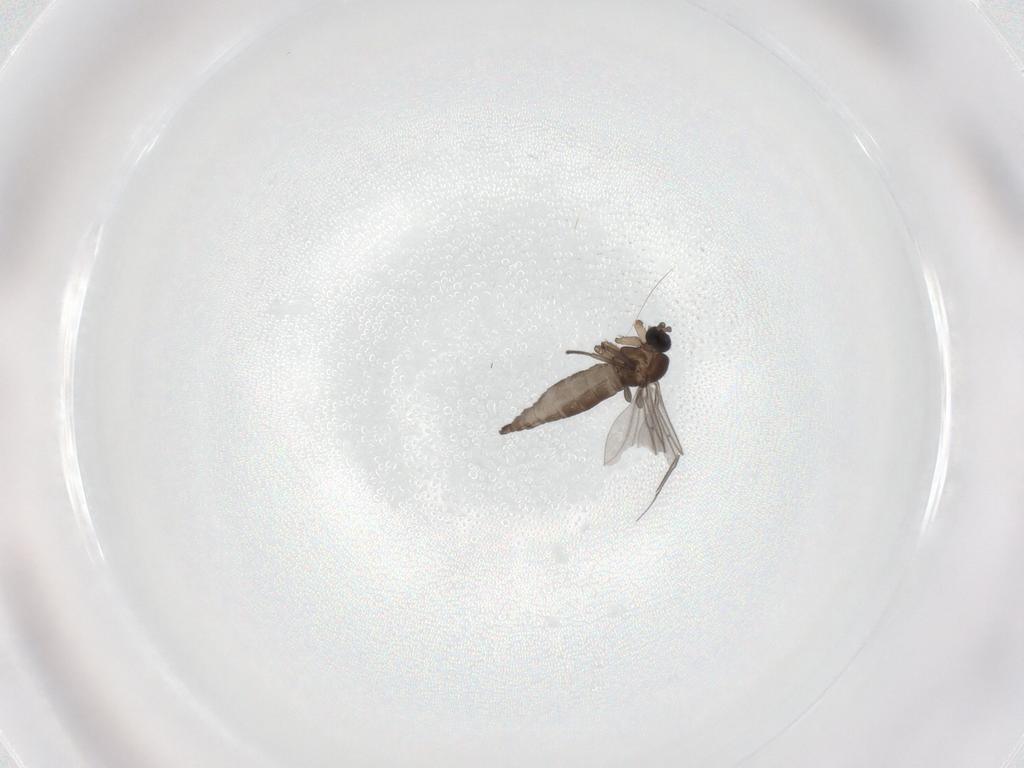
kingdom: Animalia
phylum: Arthropoda
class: Insecta
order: Diptera
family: Sciaridae
